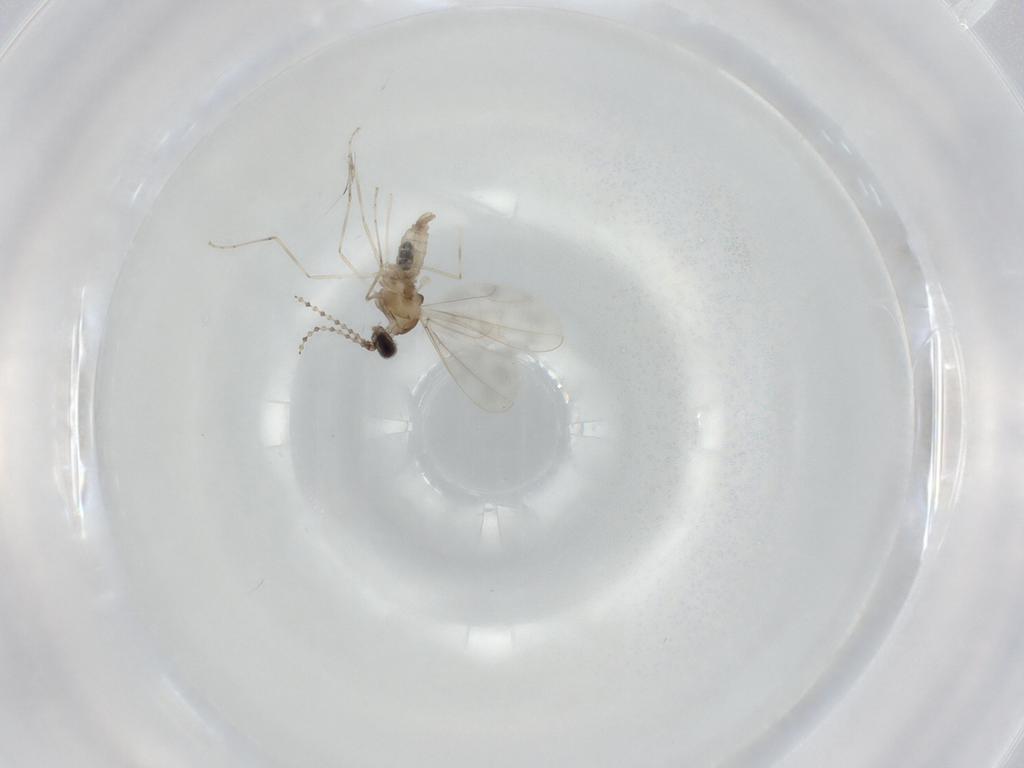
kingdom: Animalia
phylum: Arthropoda
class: Insecta
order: Diptera
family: Cecidomyiidae
